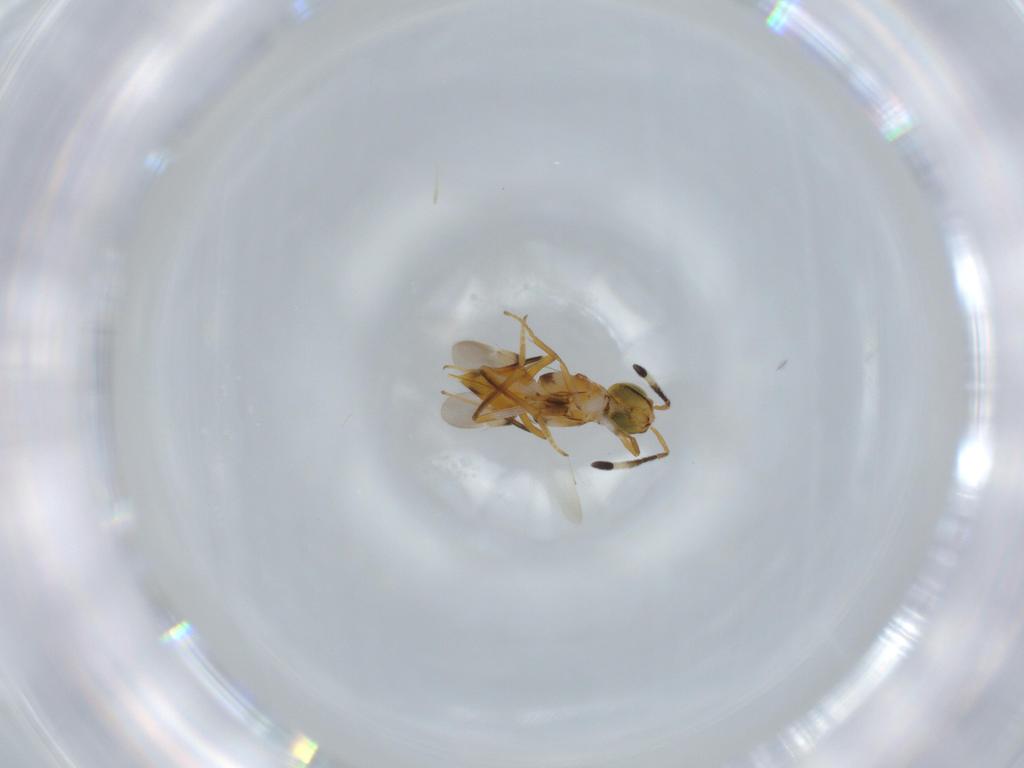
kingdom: Animalia
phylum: Arthropoda
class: Insecta
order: Hymenoptera
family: Encyrtidae
